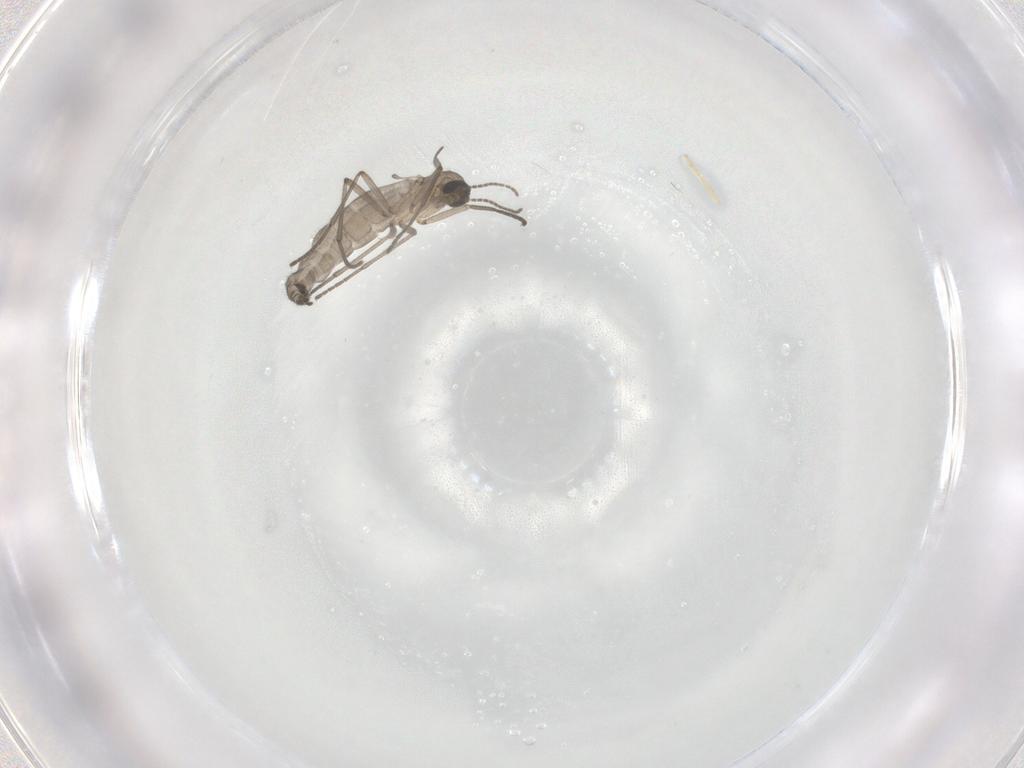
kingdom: Animalia
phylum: Arthropoda
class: Insecta
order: Diptera
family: Sciaridae
